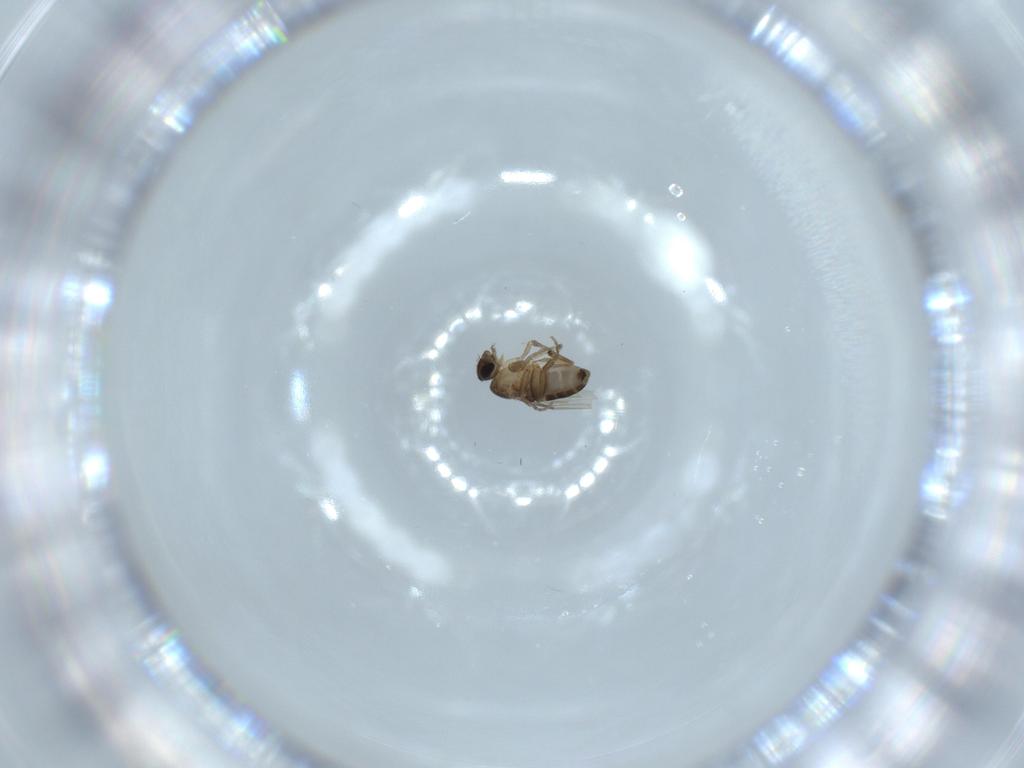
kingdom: Animalia
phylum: Arthropoda
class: Insecta
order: Diptera
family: Phoridae
